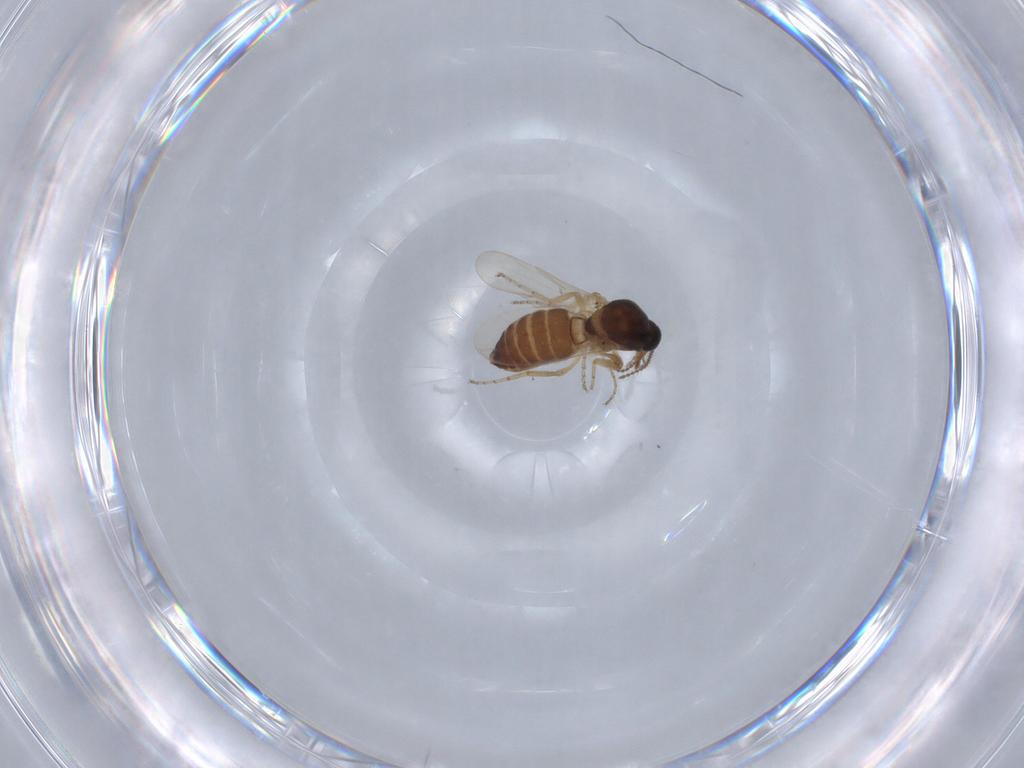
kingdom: Animalia
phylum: Arthropoda
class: Insecta
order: Diptera
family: Ceratopogonidae
